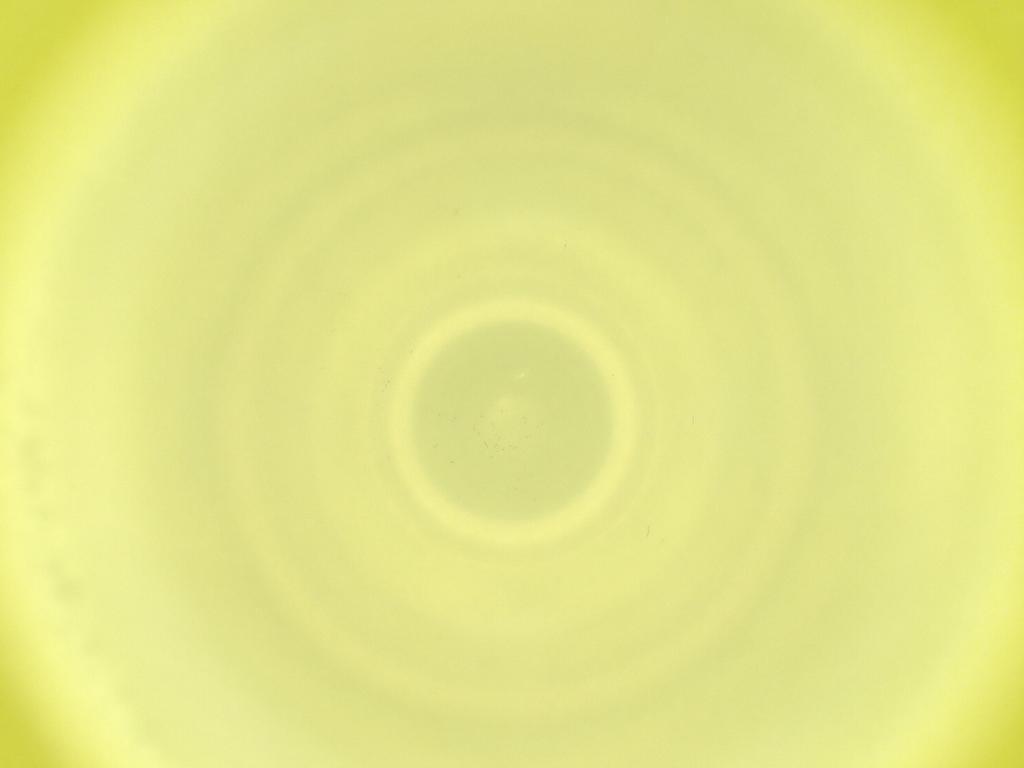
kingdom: Animalia
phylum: Arthropoda
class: Insecta
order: Diptera
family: Cecidomyiidae
